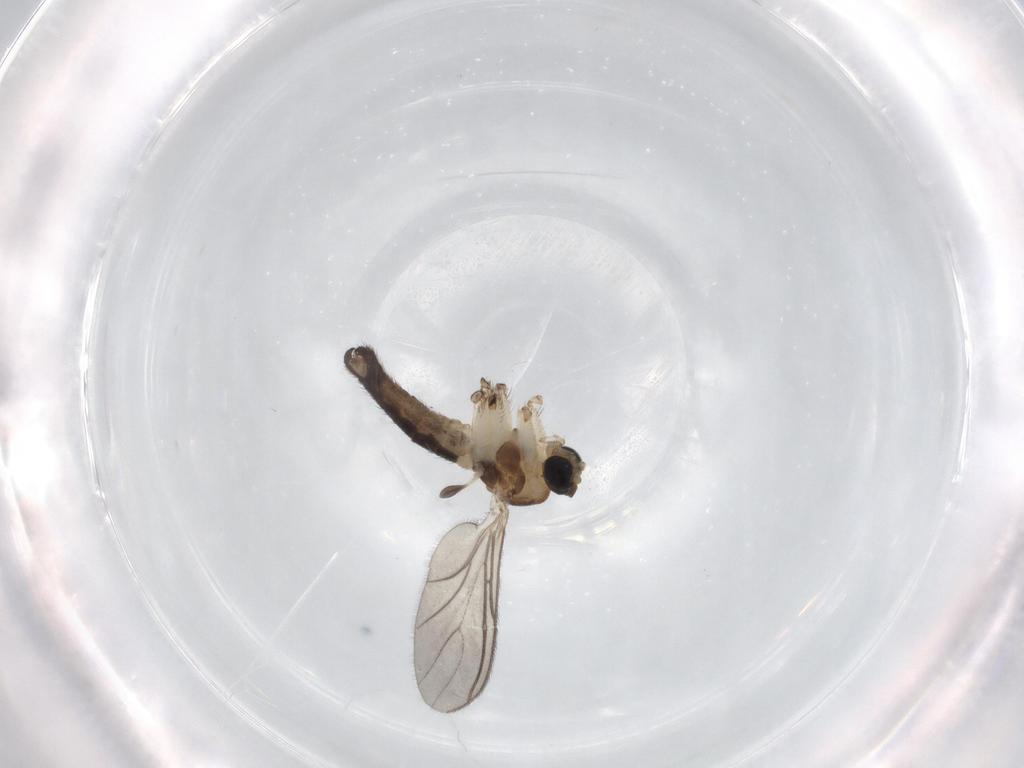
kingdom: Animalia
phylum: Arthropoda
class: Insecta
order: Diptera
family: Sciaridae
